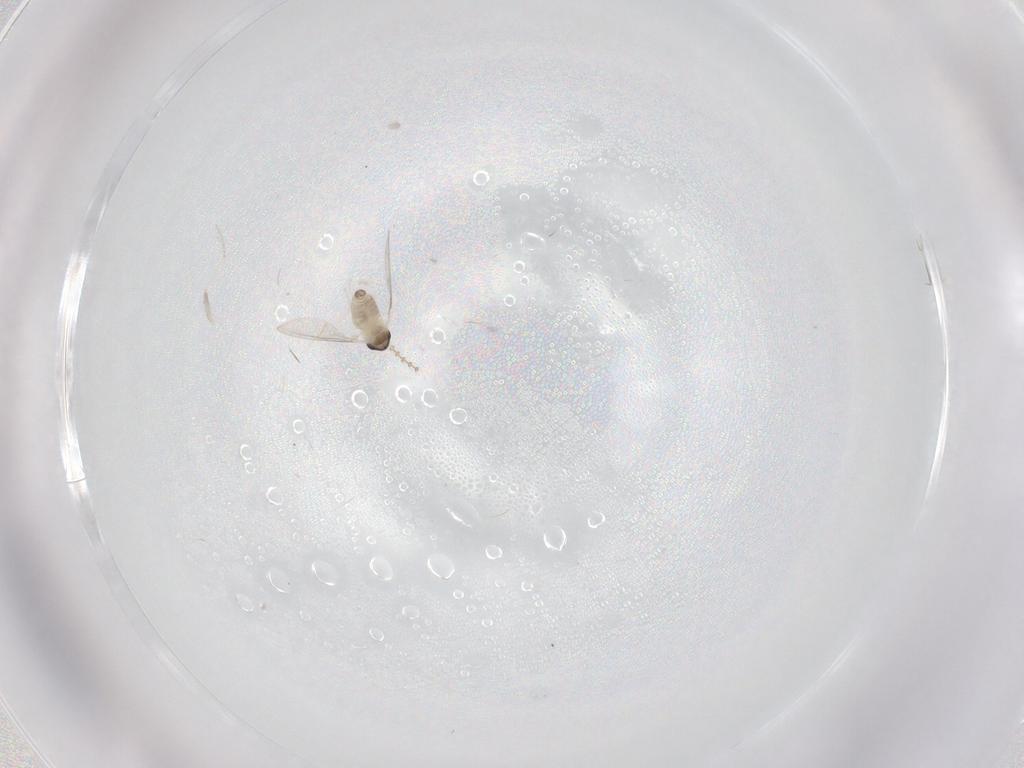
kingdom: Animalia
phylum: Arthropoda
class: Insecta
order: Diptera
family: Cecidomyiidae
